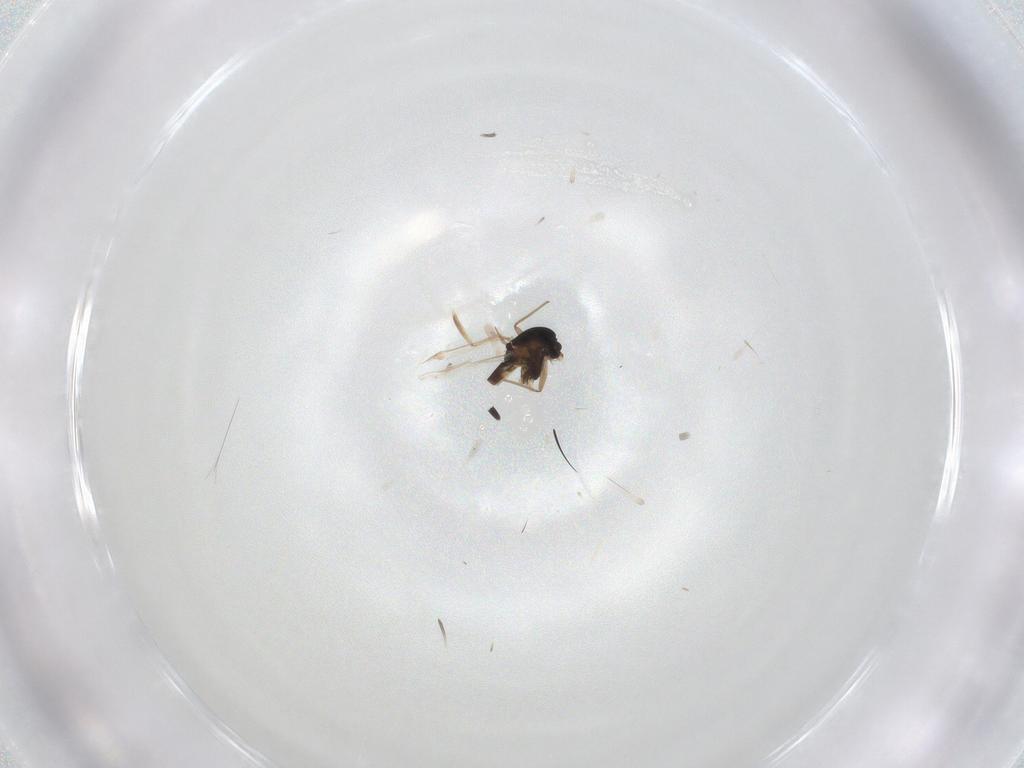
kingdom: Animalia
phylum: Arthropoda
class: Insecta
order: Diptera
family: Chironomidae
